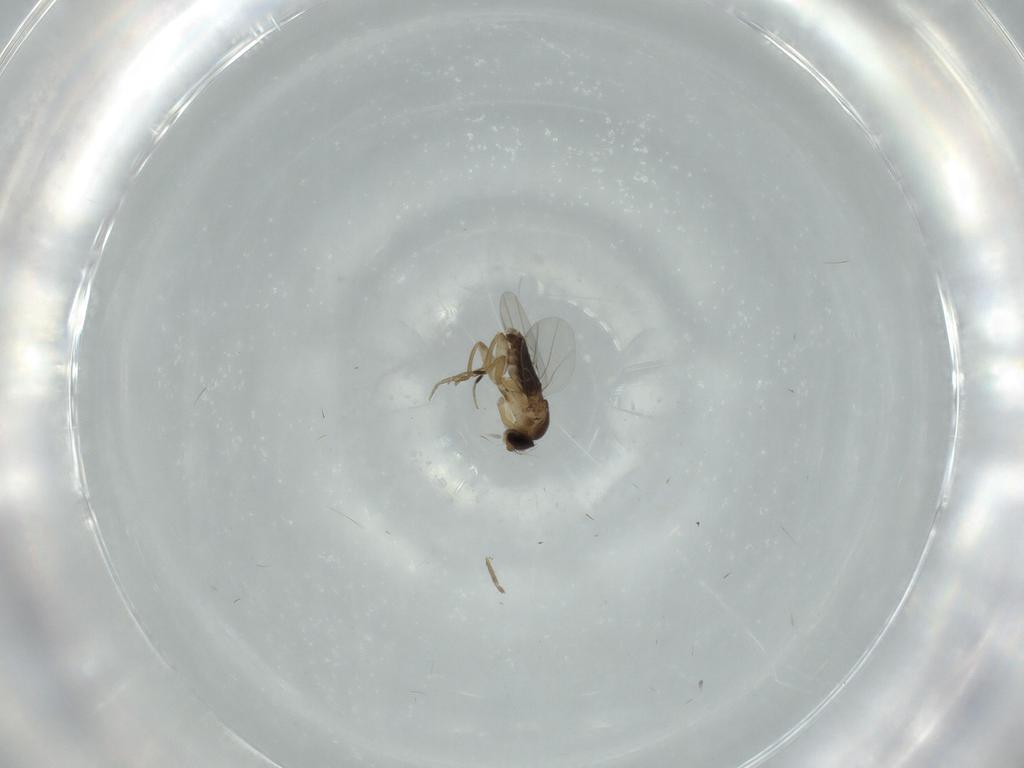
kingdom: Animalia
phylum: Arthropoda
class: Insecta
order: Diptera
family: Phoridae
